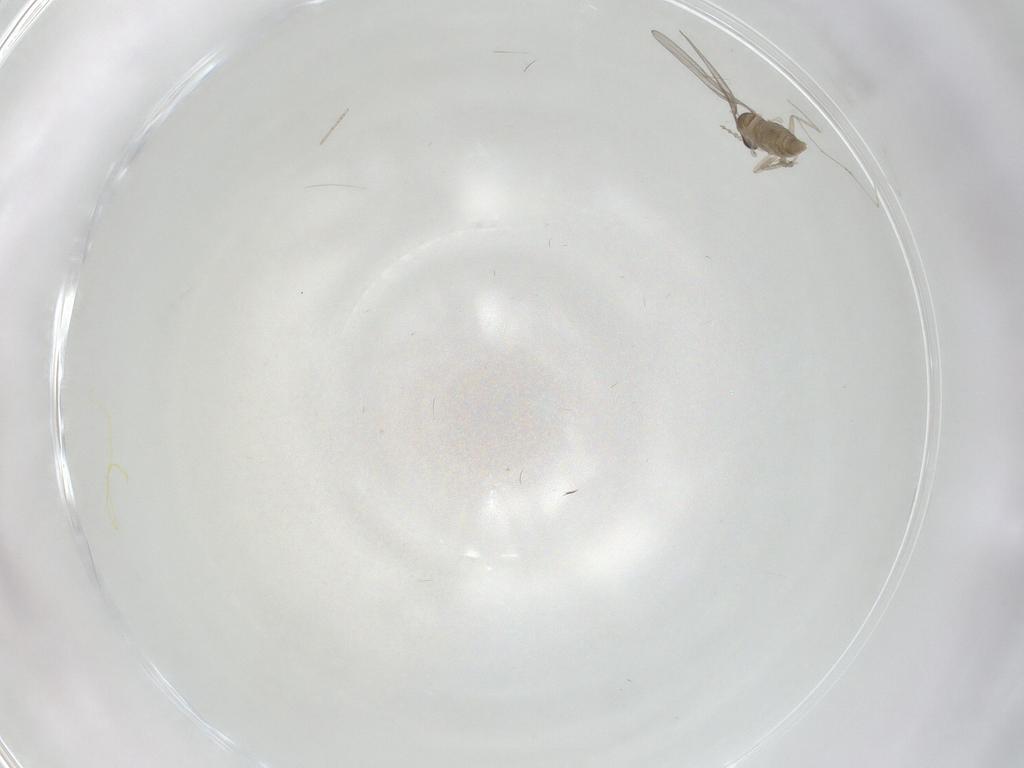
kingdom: Animalia
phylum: Arthropoda
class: Insecta
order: Diptera
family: Cecidomyiidae
